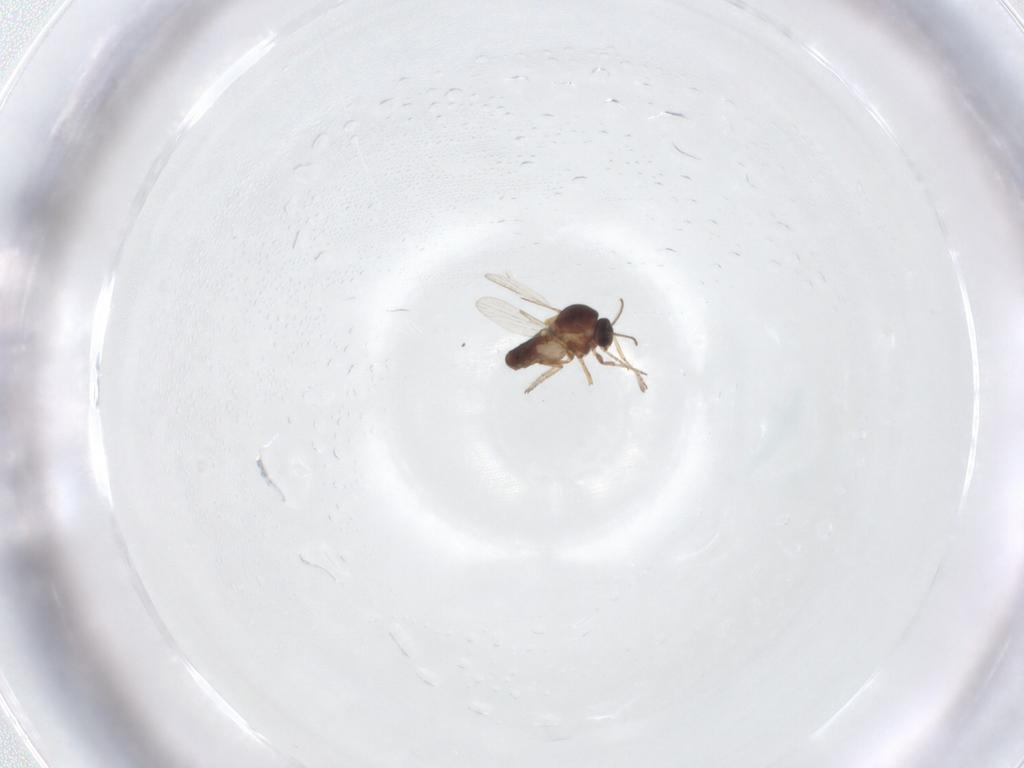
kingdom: Animalia
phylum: Arthropoda
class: Insecta
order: Diptera
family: Ceratopogonidae
